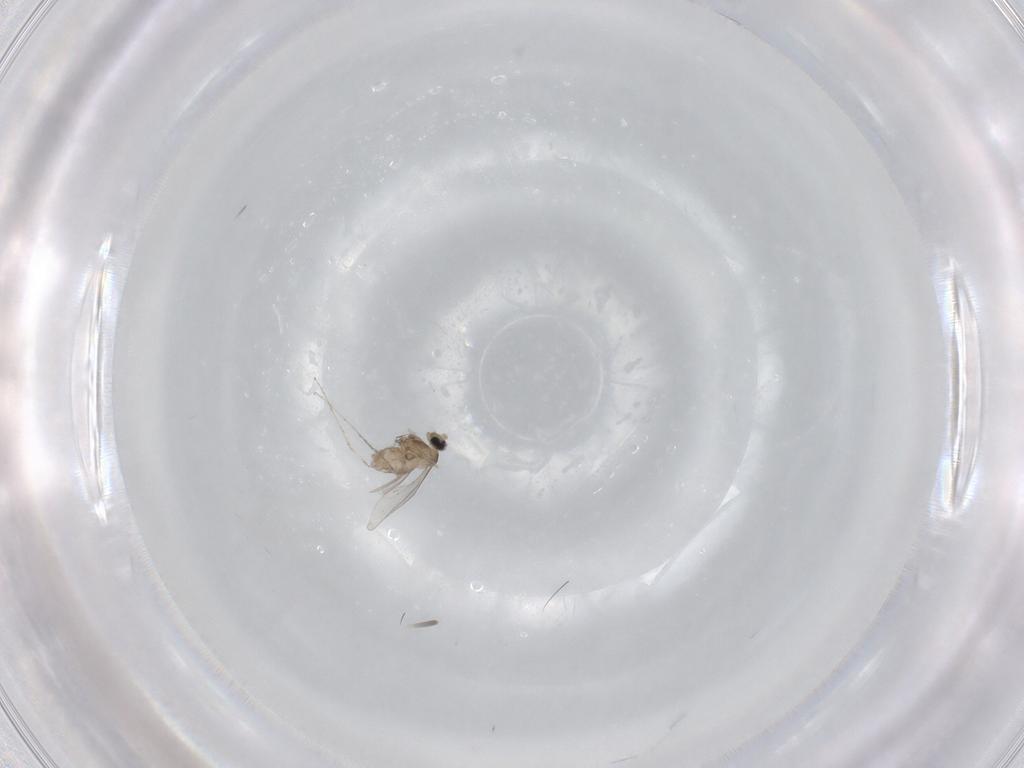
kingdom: Animalia
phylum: Arthropoda
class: Insecta
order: Diptera
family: Cecidomyiidae
